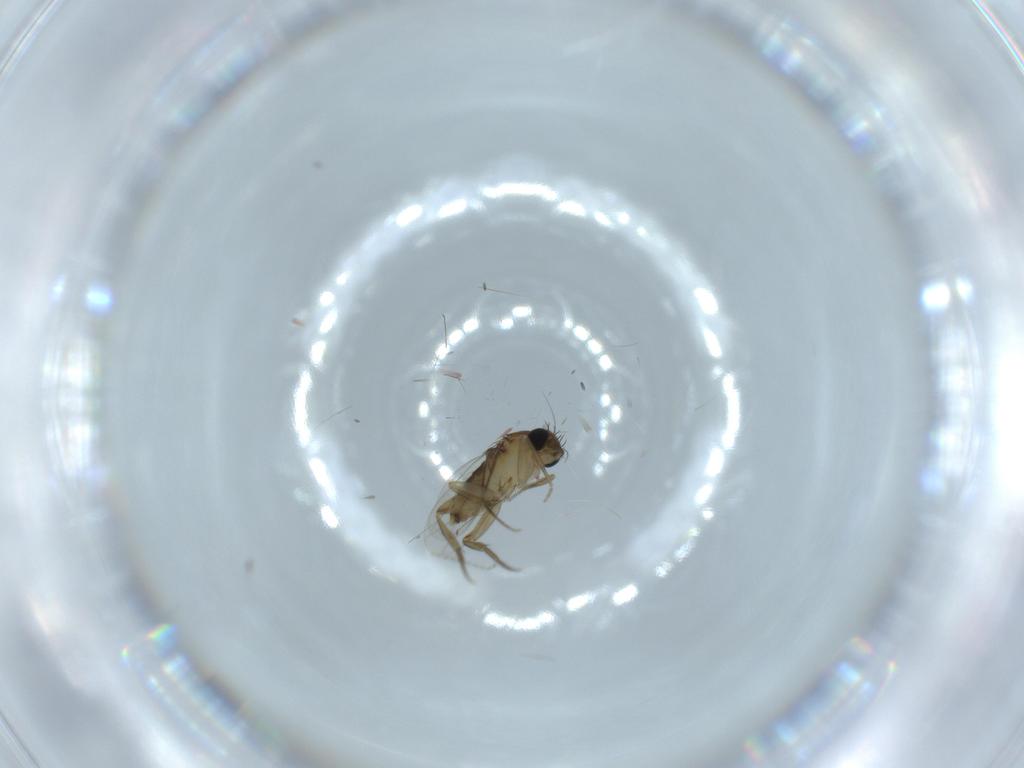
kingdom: Animalia
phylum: Arthropoda
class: Insecta
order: Diptera
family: Phoridae
